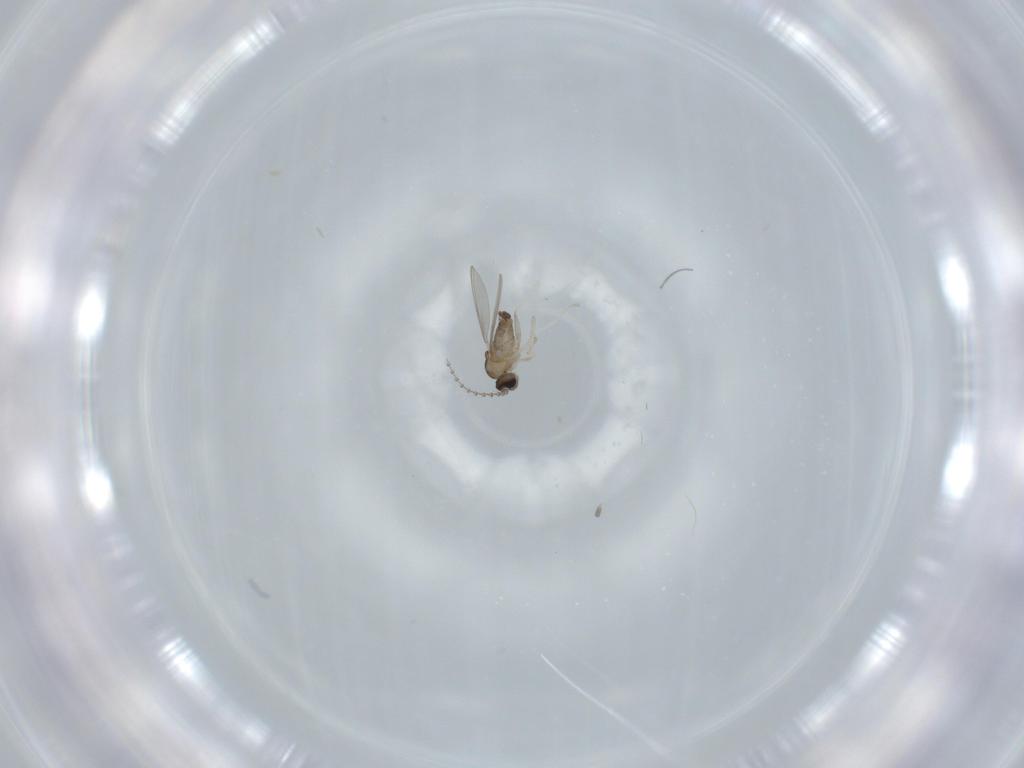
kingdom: Animalia
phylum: Arthropoda
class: Insecta
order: Diptera
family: Cecidomyiidae
